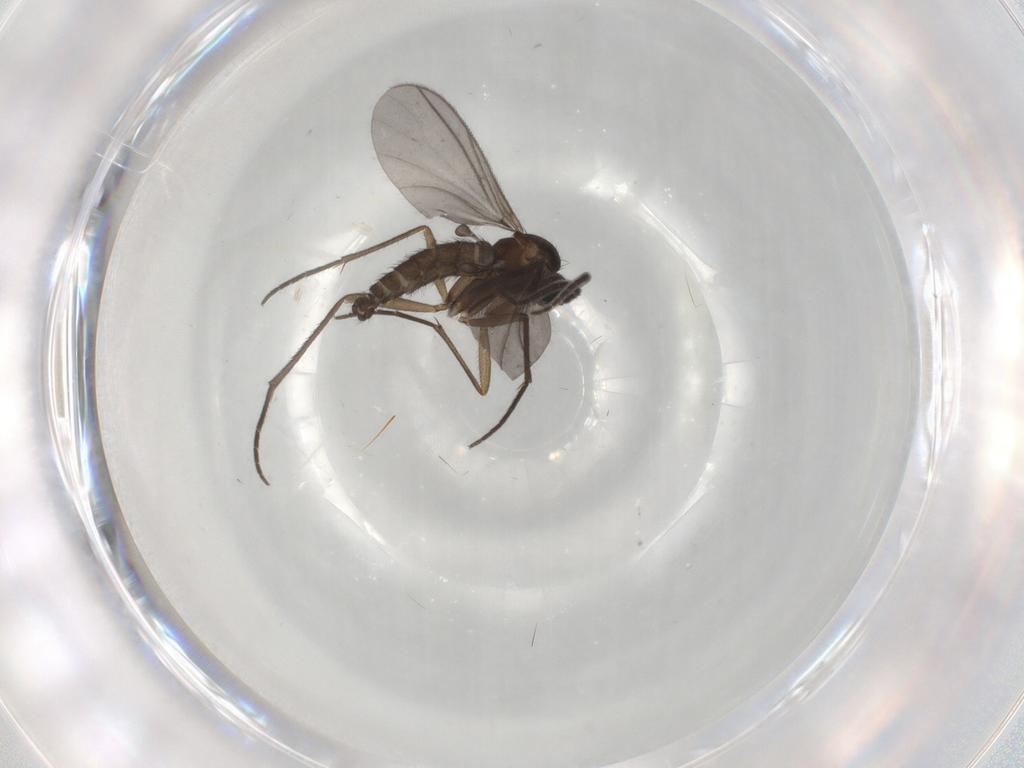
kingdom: Animalia
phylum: Arthropoda
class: Insecta
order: Diptera
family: Sciaridae
